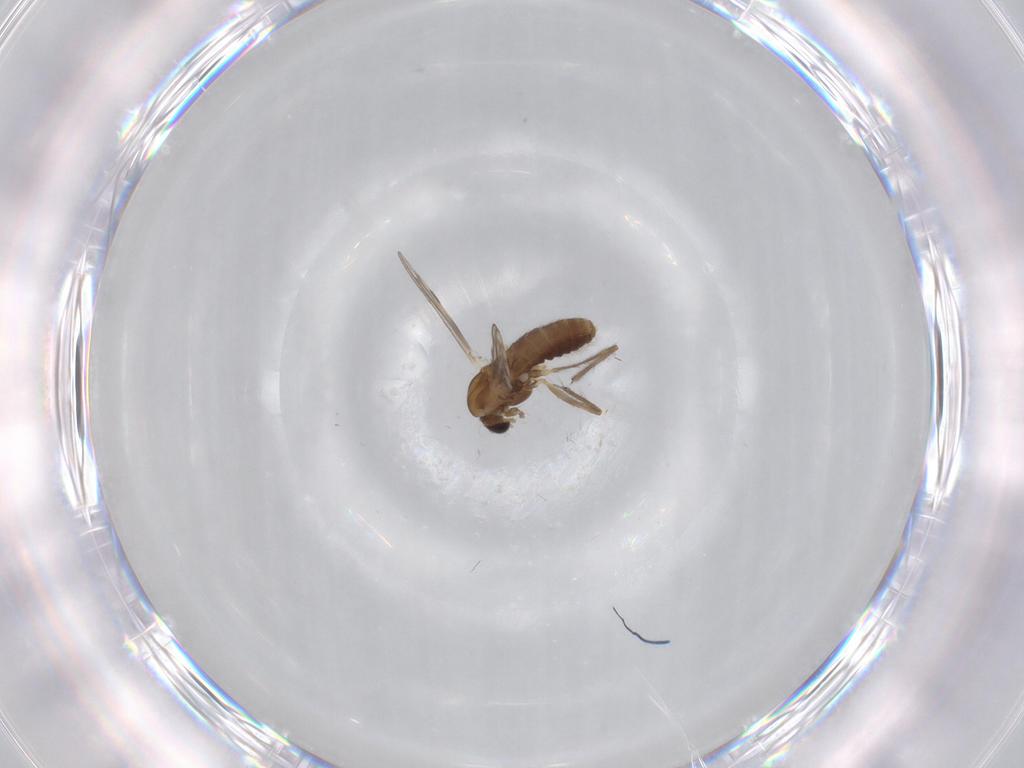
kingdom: Animalia
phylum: Arthropoda
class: Insecta
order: Diptera
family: Chironomidae
